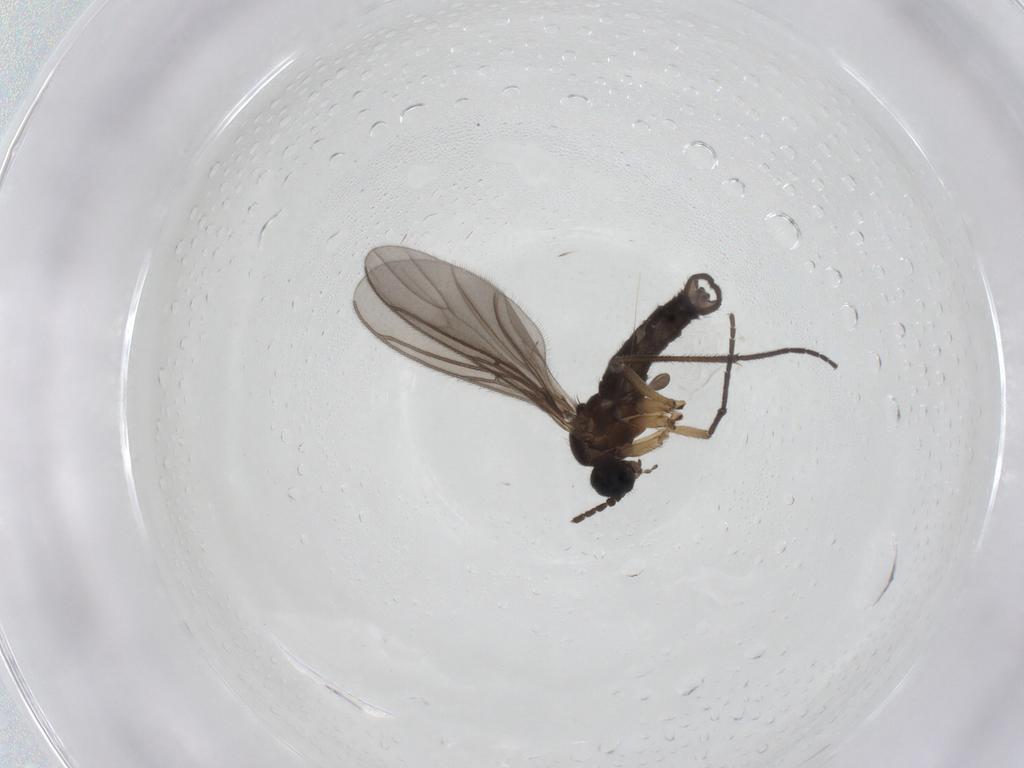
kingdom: Animalia
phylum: Arthropoda
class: Insecta
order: Diptera
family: Sciaridae
